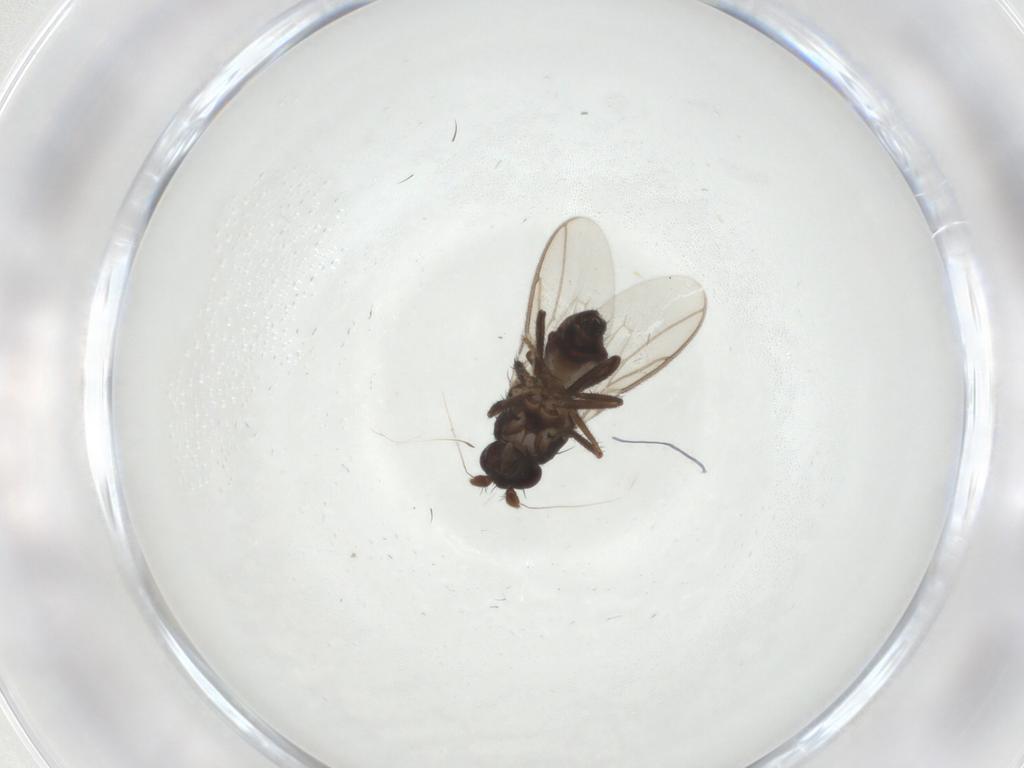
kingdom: Animalia
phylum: Arthropoda
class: Insecta
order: Diptera
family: Sphaeroceridae
